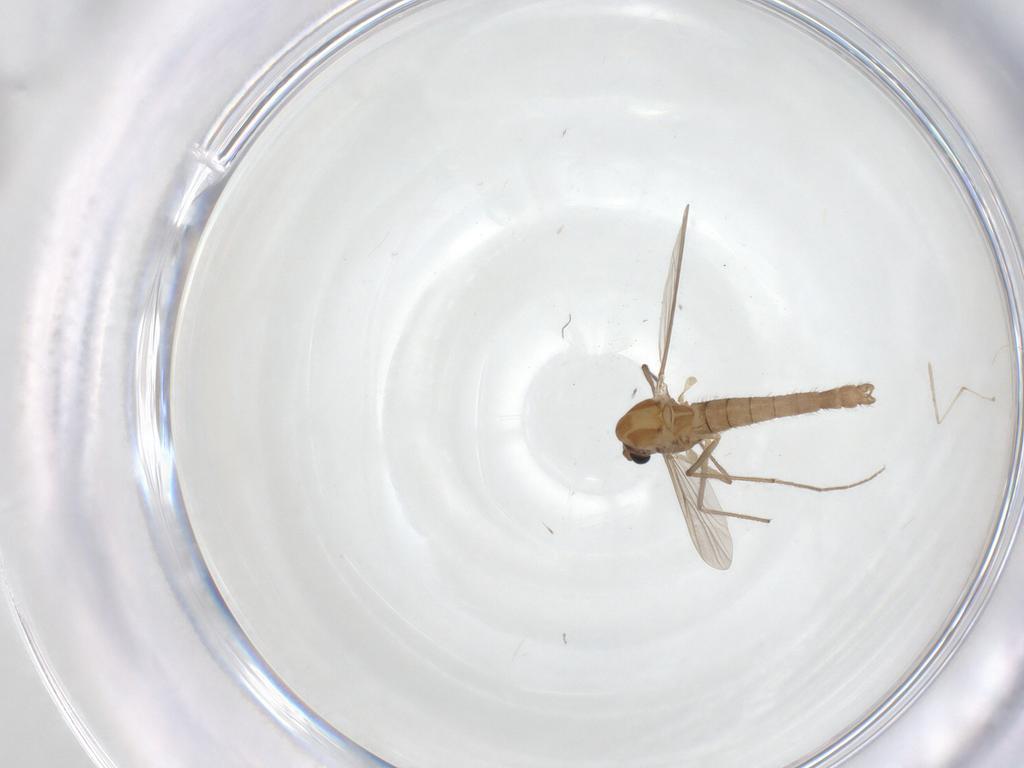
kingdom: Animalia
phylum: Arthropoda
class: Insecta
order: Diptera
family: Chironomidae
